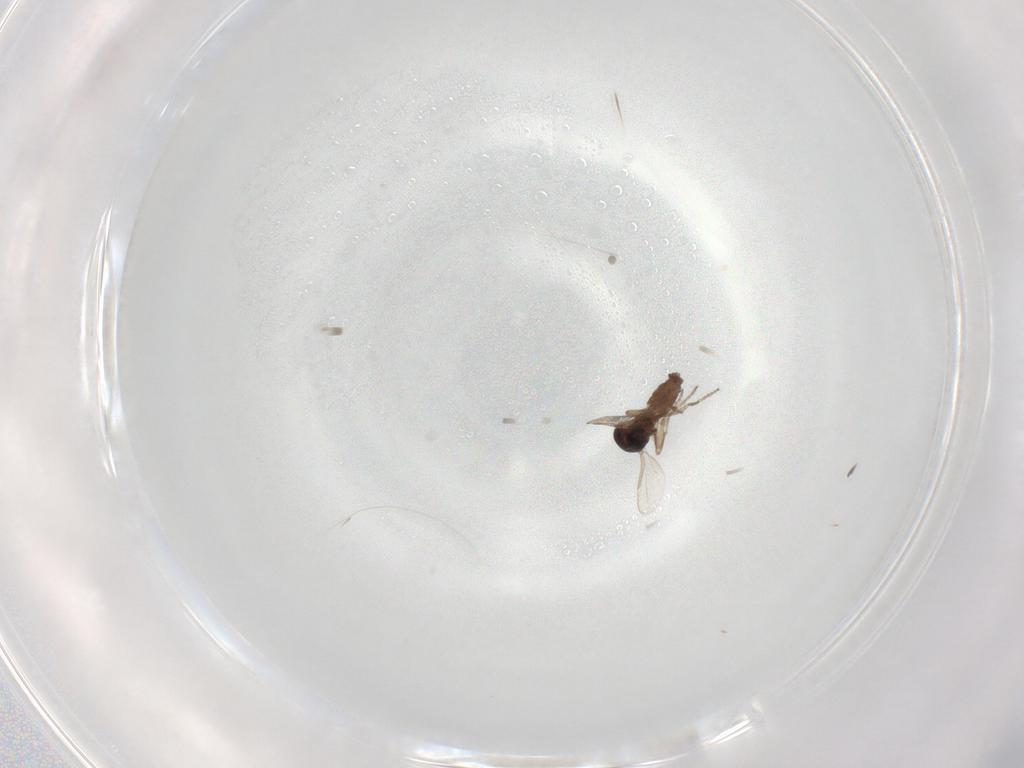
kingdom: Animalia
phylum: Arthropoda
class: Insecta
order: Diptera
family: Ceratopogonidae
